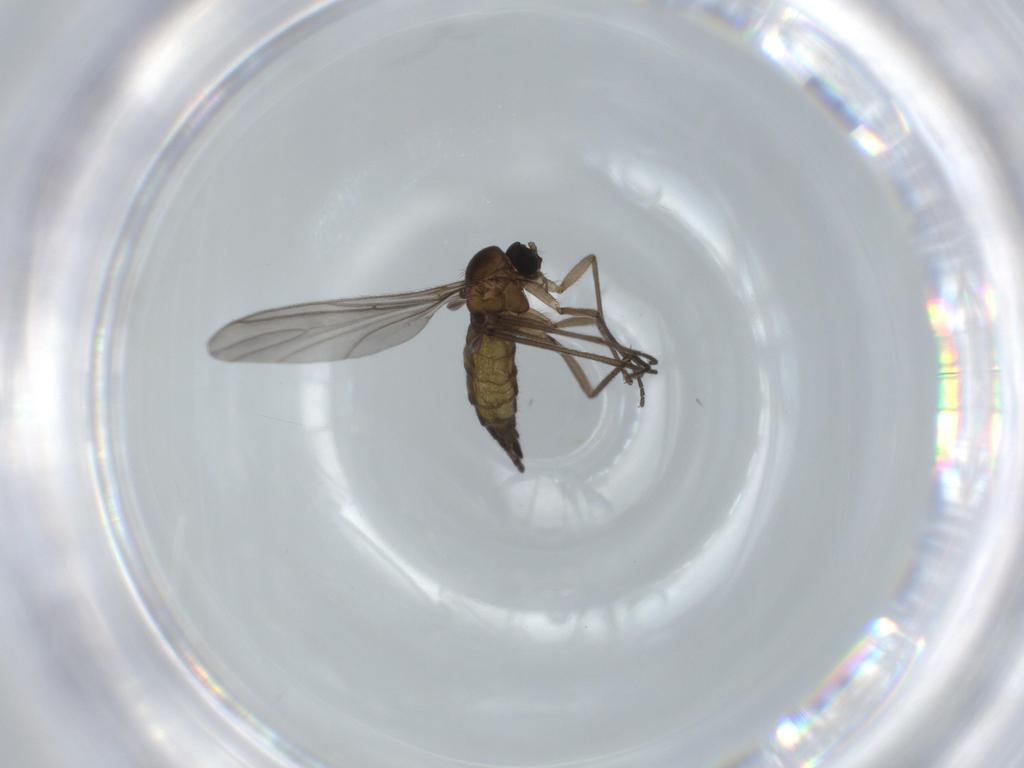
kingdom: Animalia
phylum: Arthropoda
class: Insecta
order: Diptera
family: Sciaridae
